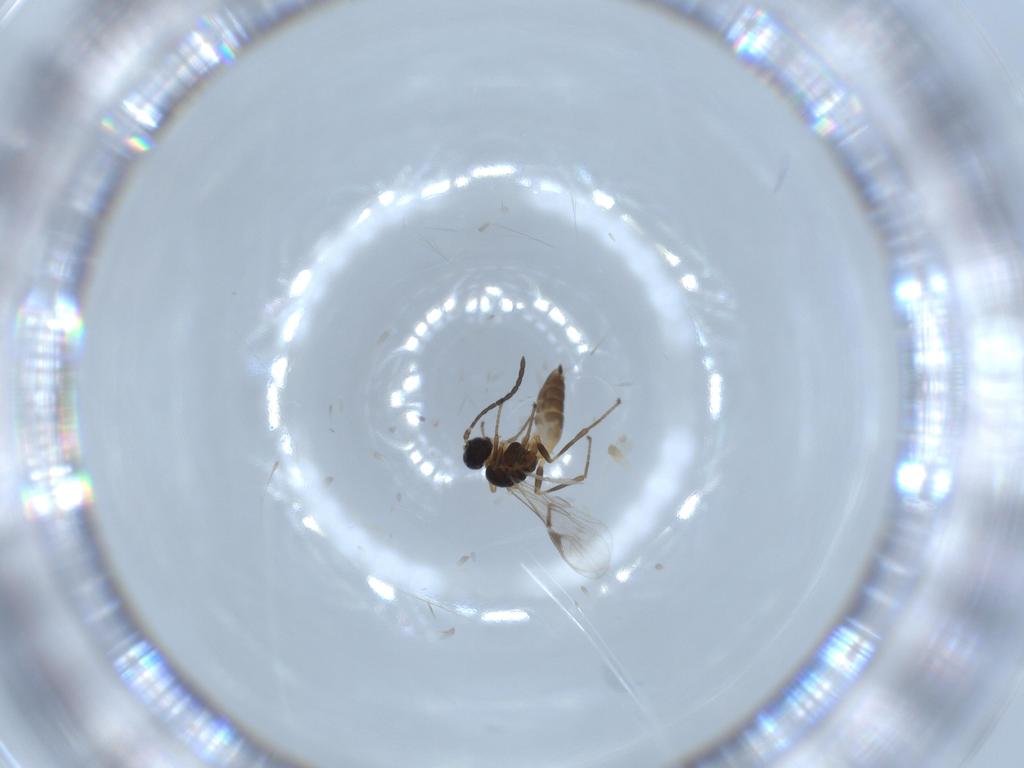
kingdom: Animalia
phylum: Arthropoda
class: Insecta
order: Hymenoptera
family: Braconidae
